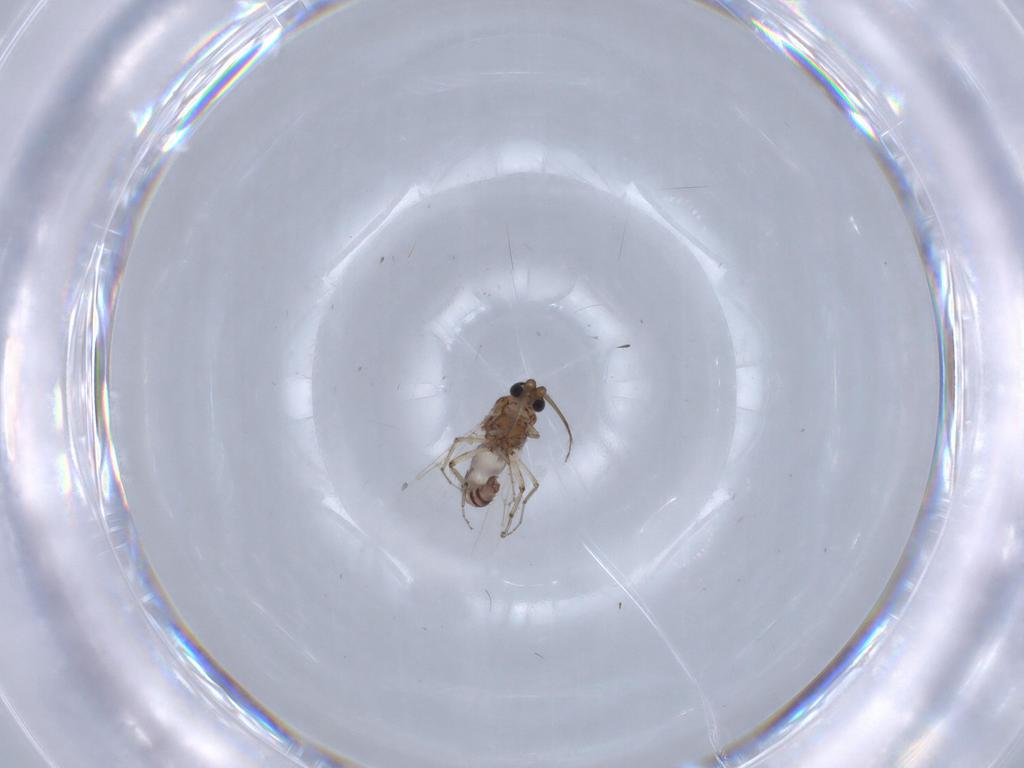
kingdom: Animalia
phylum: Arthropoda
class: Insecta
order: Diptera
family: Ceratopogonidae
